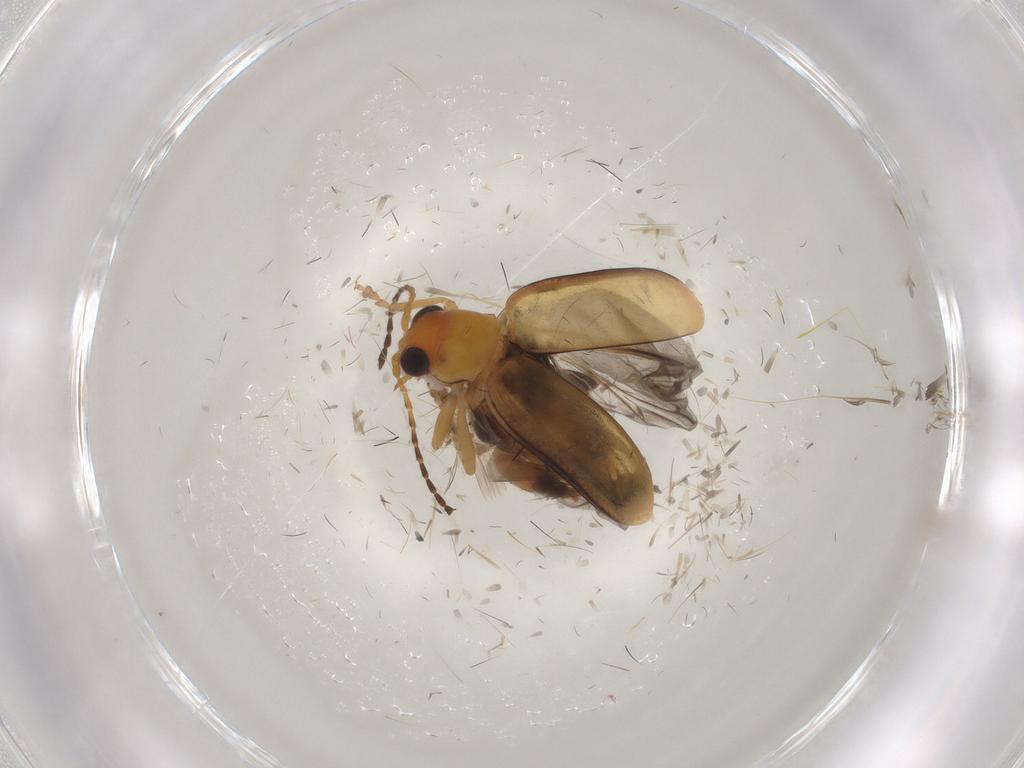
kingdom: Animalia
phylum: Arthropoda
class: Insecta
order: Coleoptera
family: Chrysomelidae
